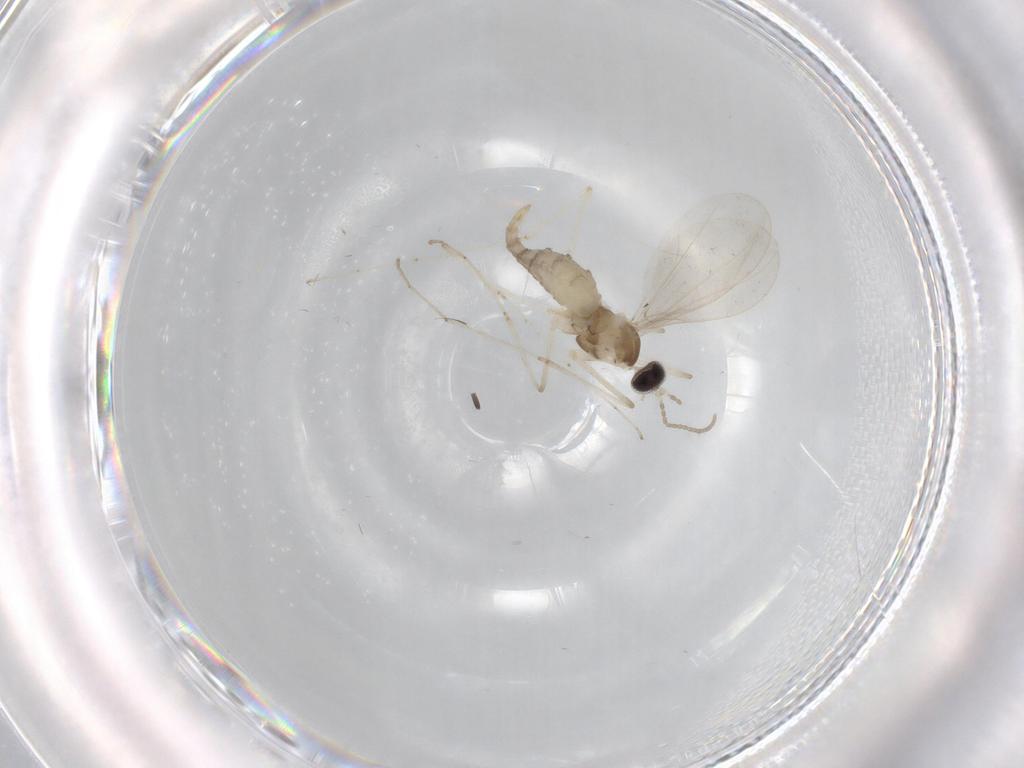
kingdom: Animalia
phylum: Arthropoda
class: Insecta
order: Diptera
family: Cecidomyiidae
